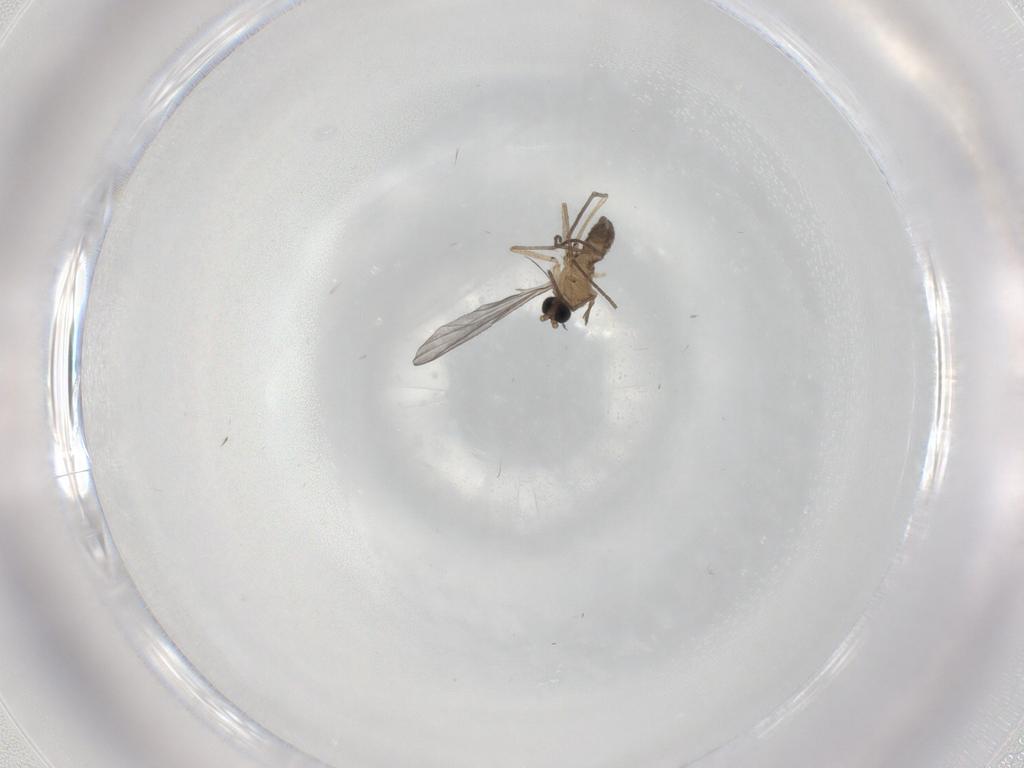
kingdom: Animalia
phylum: Arthropoda
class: Insecta
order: Diptera
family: Sciaridae
